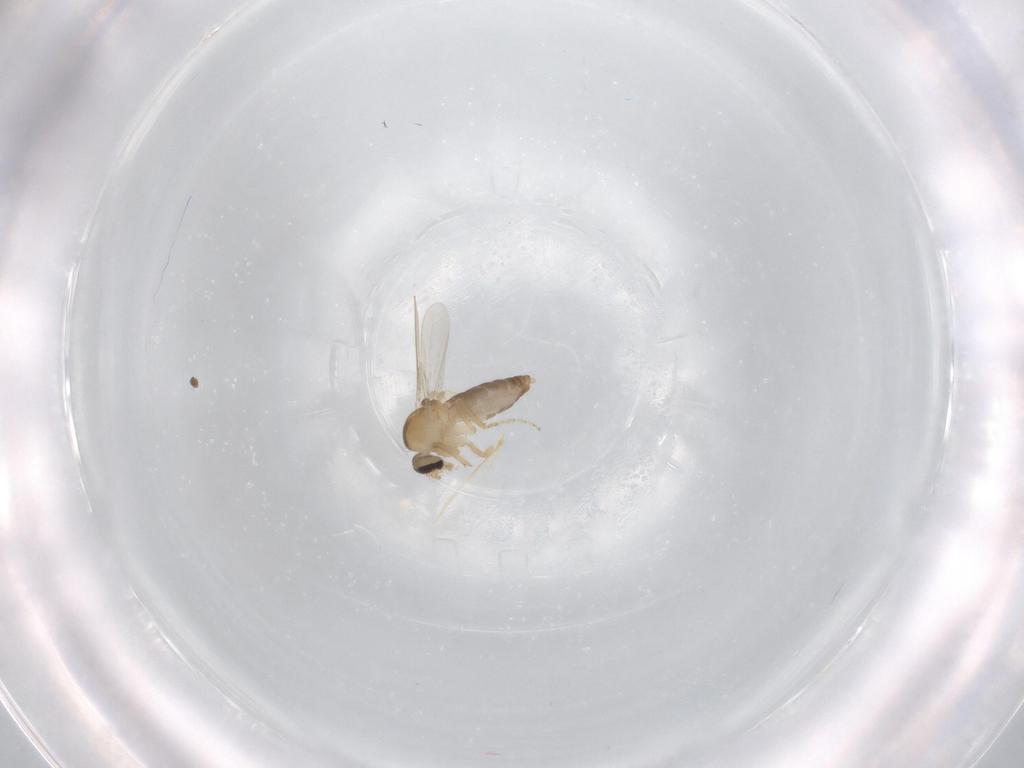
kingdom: Animalia
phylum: Arthropoda
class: Insecta
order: Diptera
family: Ceratopogonidae
